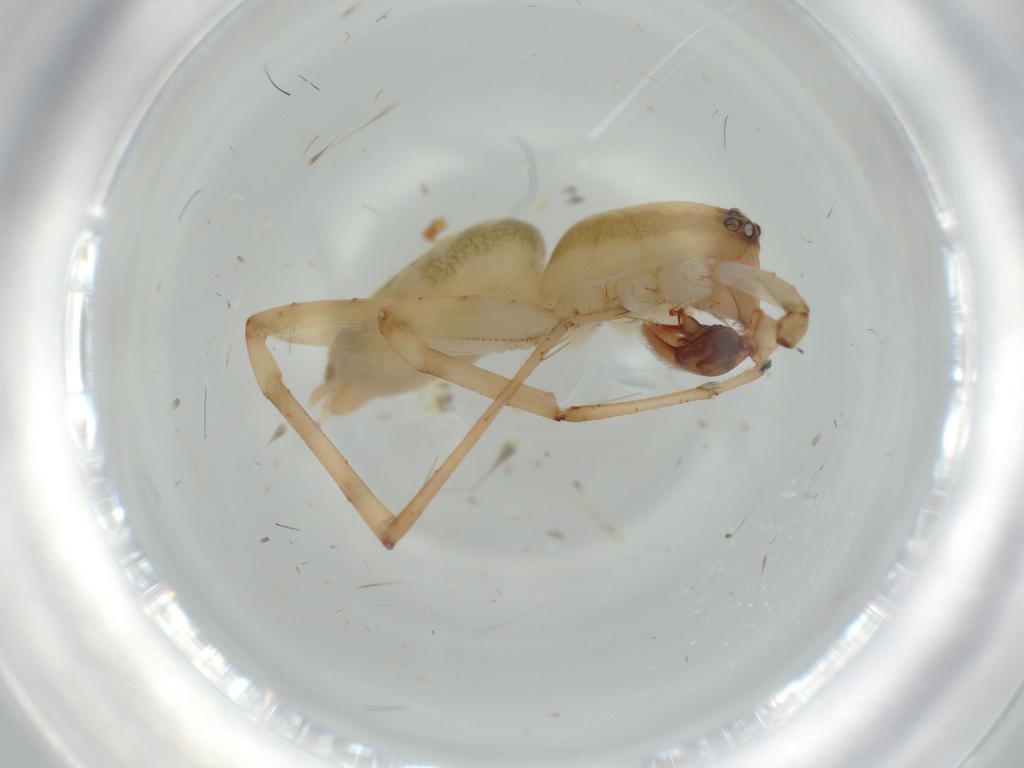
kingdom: Animalia
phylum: Arthropoda
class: Arachnida
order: Araneae
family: Anyphaenidae
